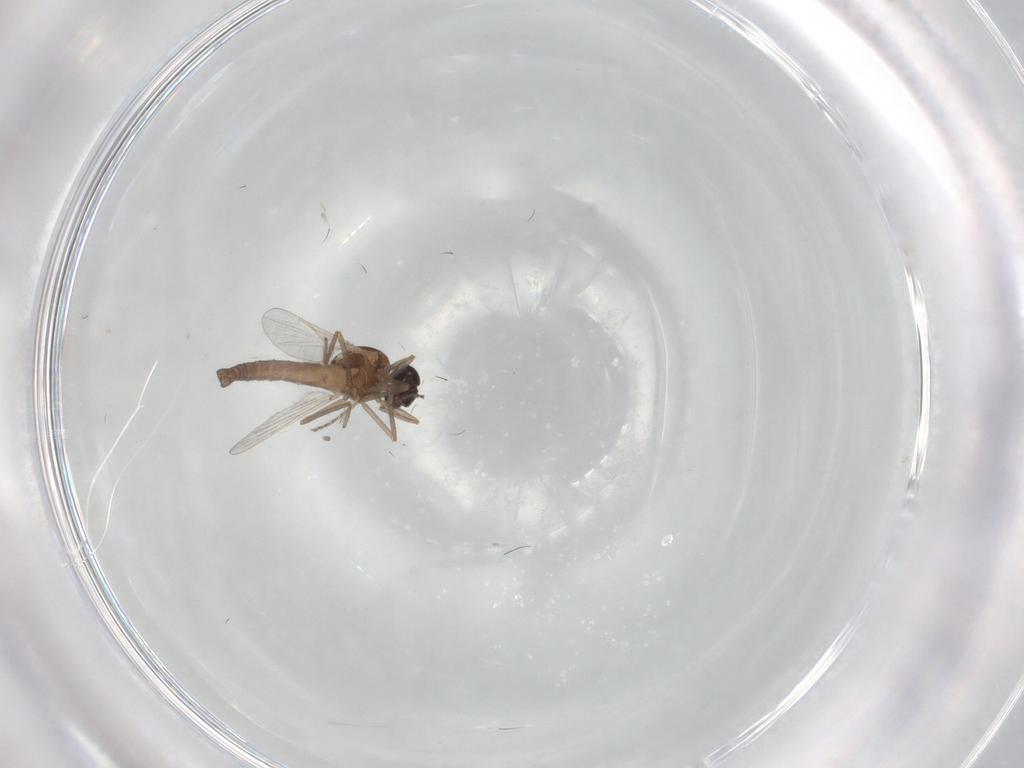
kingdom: Animalia
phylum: Arthropoda
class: Insecta
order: Diptera
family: Ceratopogonidae
